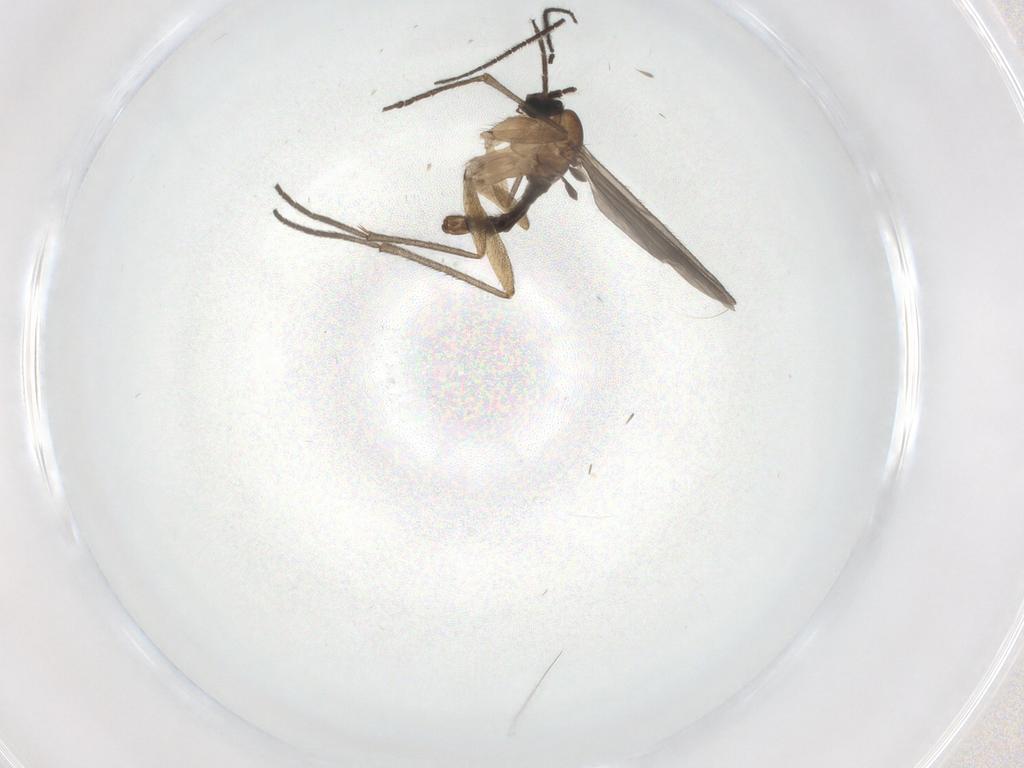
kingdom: Animalia
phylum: Arthropoda
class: Insecta
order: Diptera
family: Sciaridae
